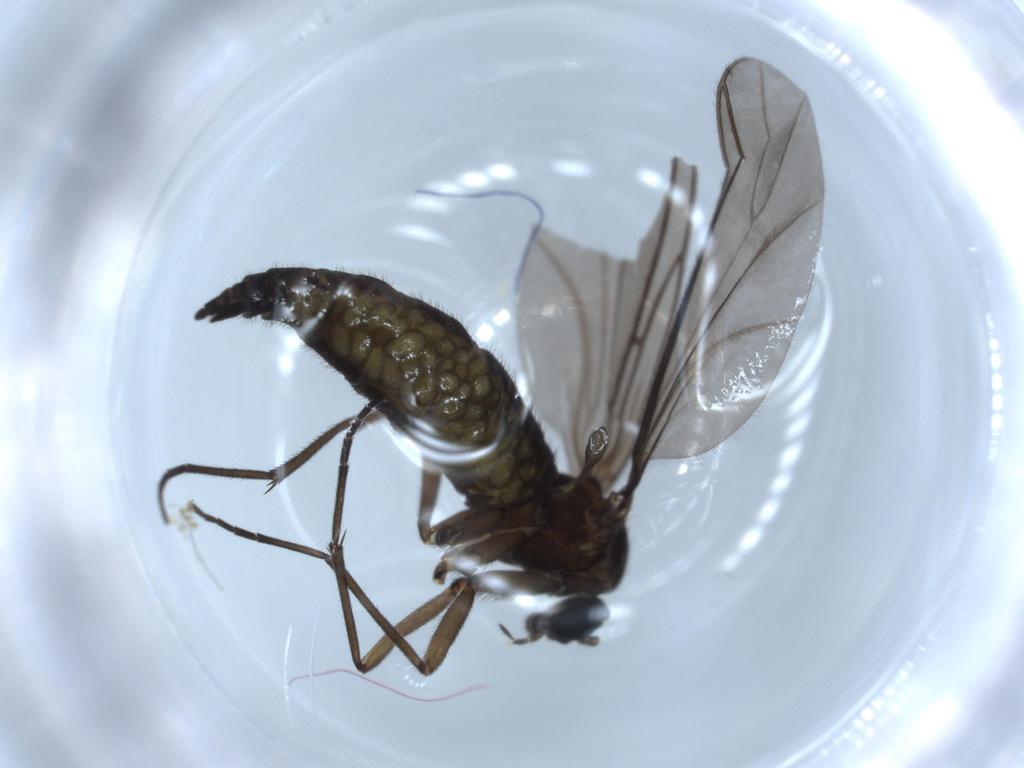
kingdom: Animalia
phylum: Arthropoda
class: Insecta
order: Diptera
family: Sciaridae
